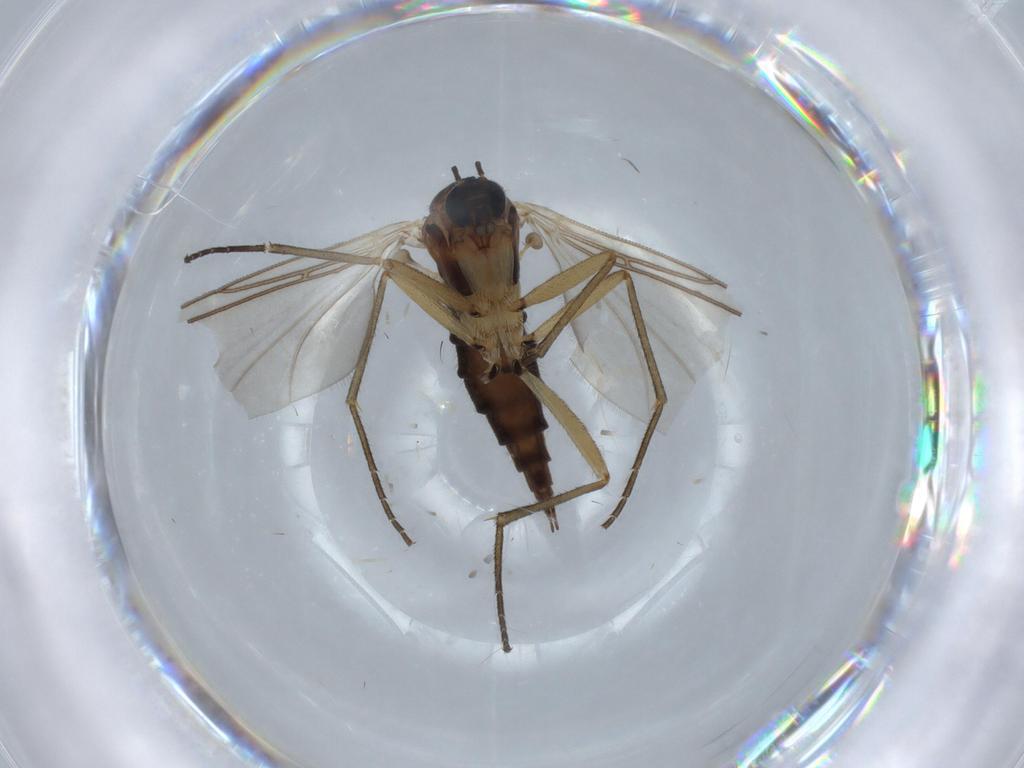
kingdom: Animalia
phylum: Arthropoda
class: Insecta
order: Diptera
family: Sciaridae
